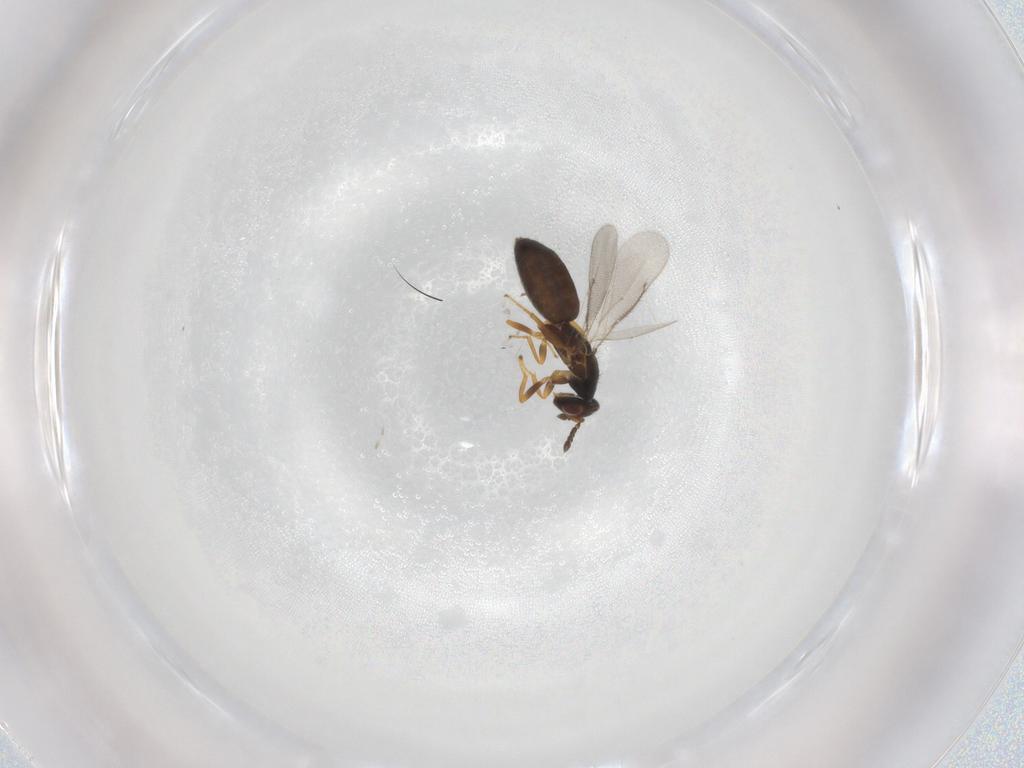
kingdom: Animalia
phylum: Arthropoda
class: Insecta
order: Hymenoptera
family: Eulophidae
